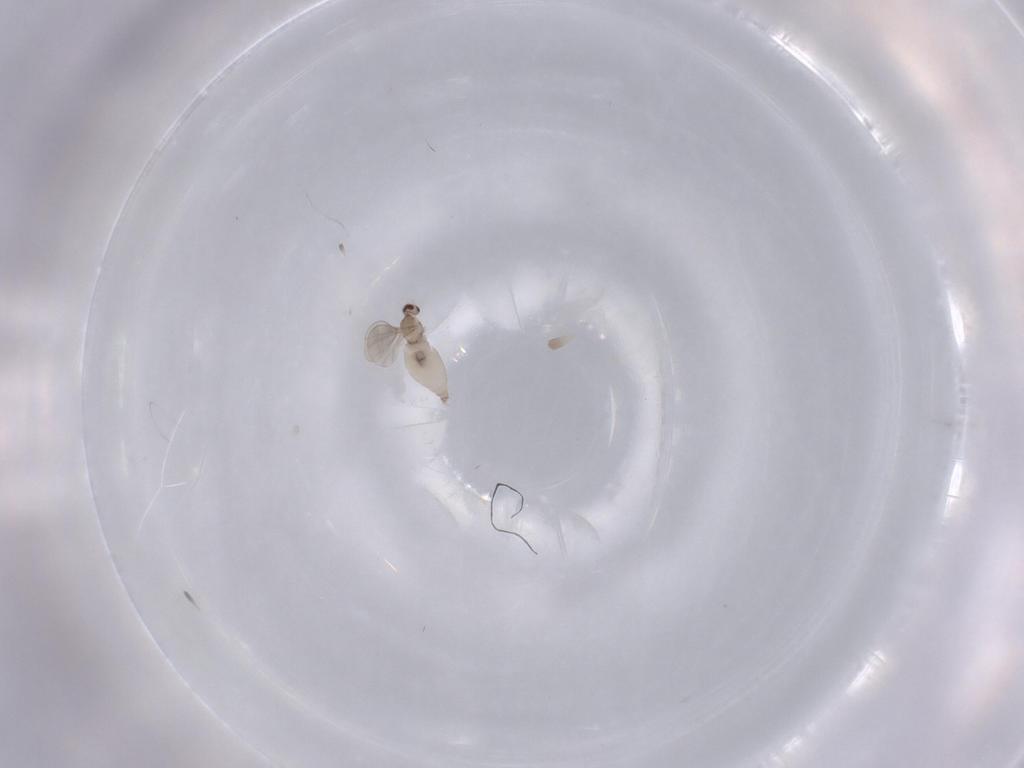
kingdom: Animalia
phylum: Arthropoda
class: Insecta
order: Diptera
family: Cecidomyiidae
